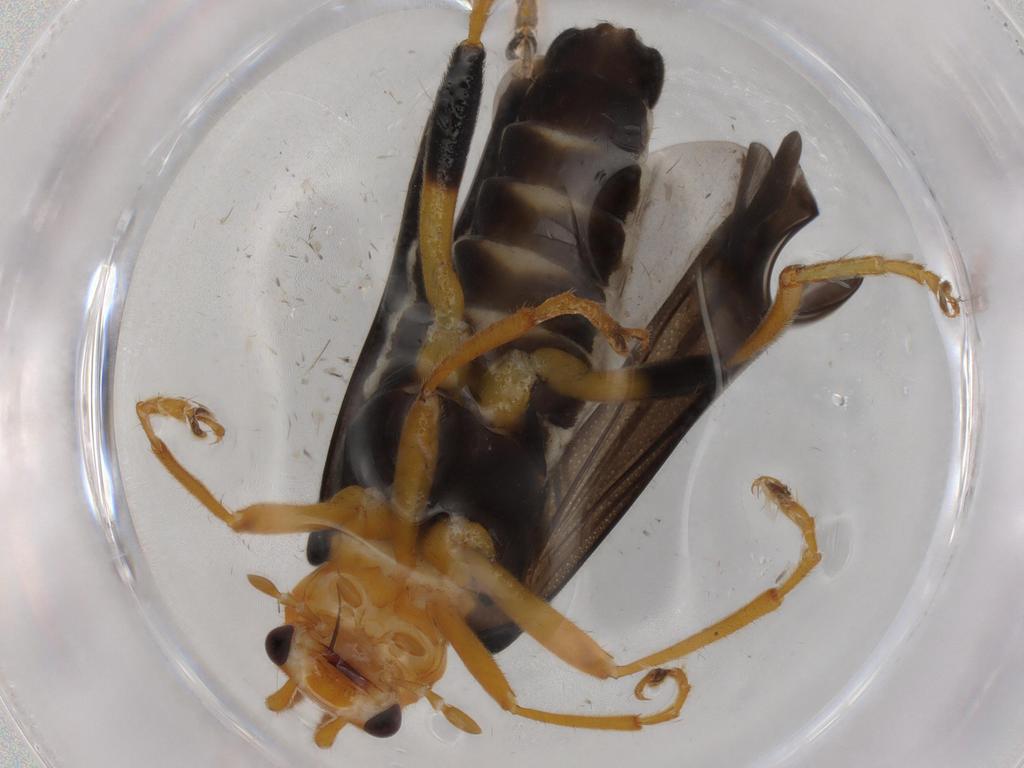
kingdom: Animalia
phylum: Arthropoda
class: Insecta
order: Coleoptera
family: Cantharidae
